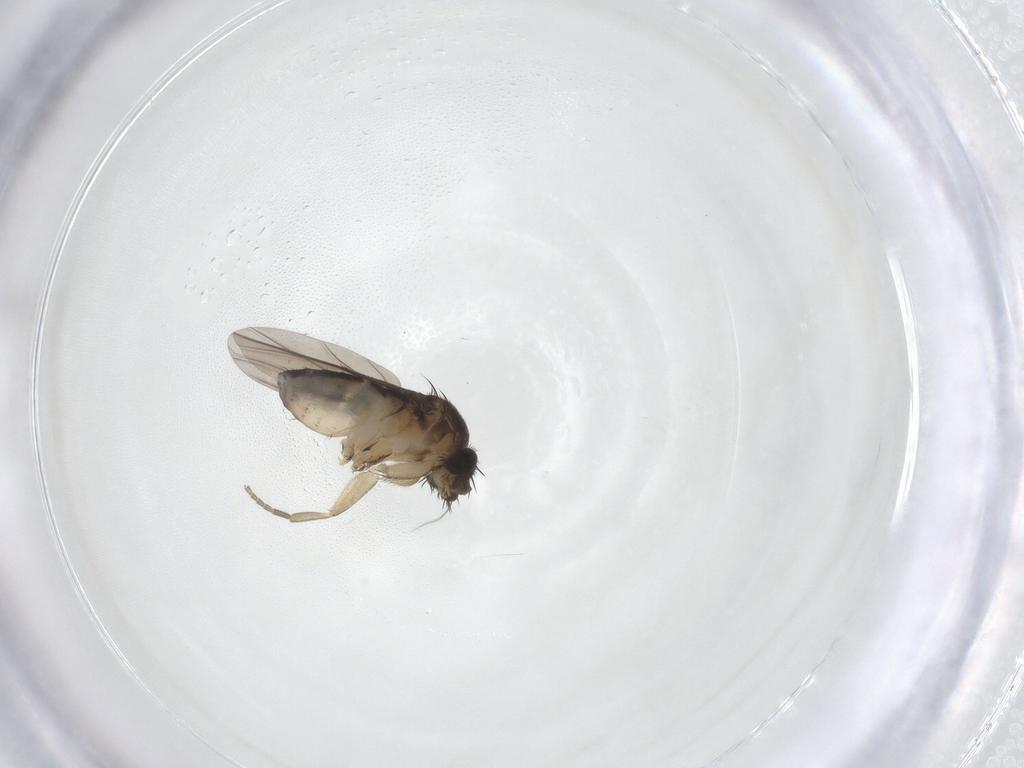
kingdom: Animalia
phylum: Arthropoda
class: Insecta
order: Diptera
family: Phoridae
